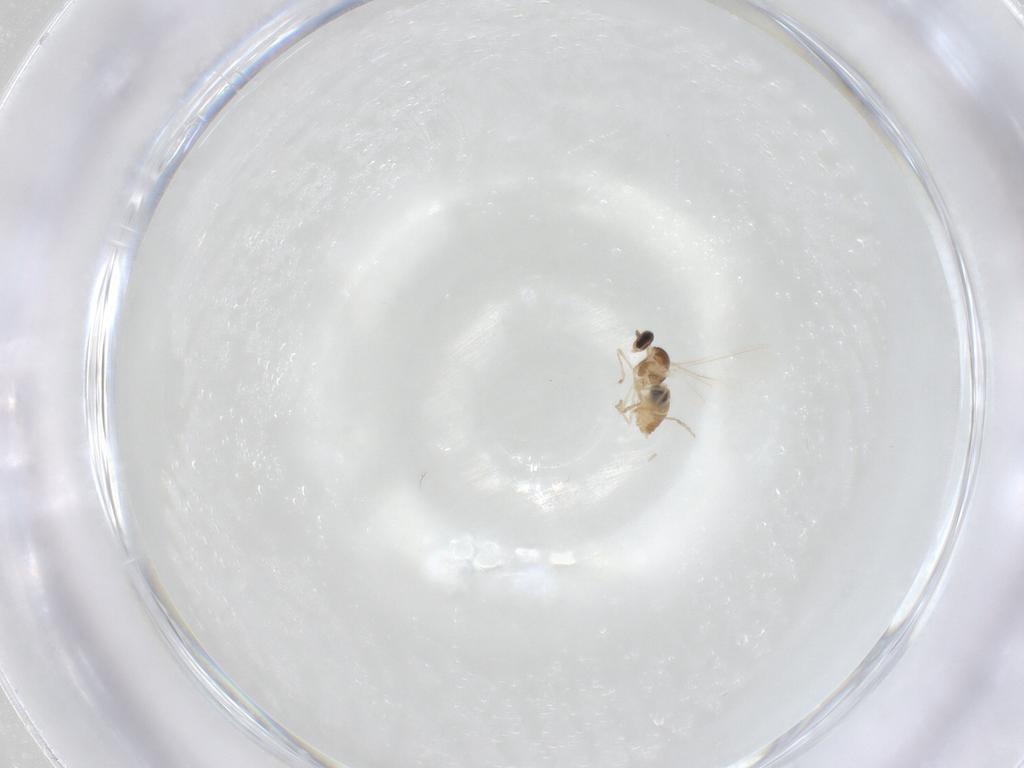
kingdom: Animalia
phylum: Arthropoda
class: Insecta
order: Diptera
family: Cecidomyiidae
